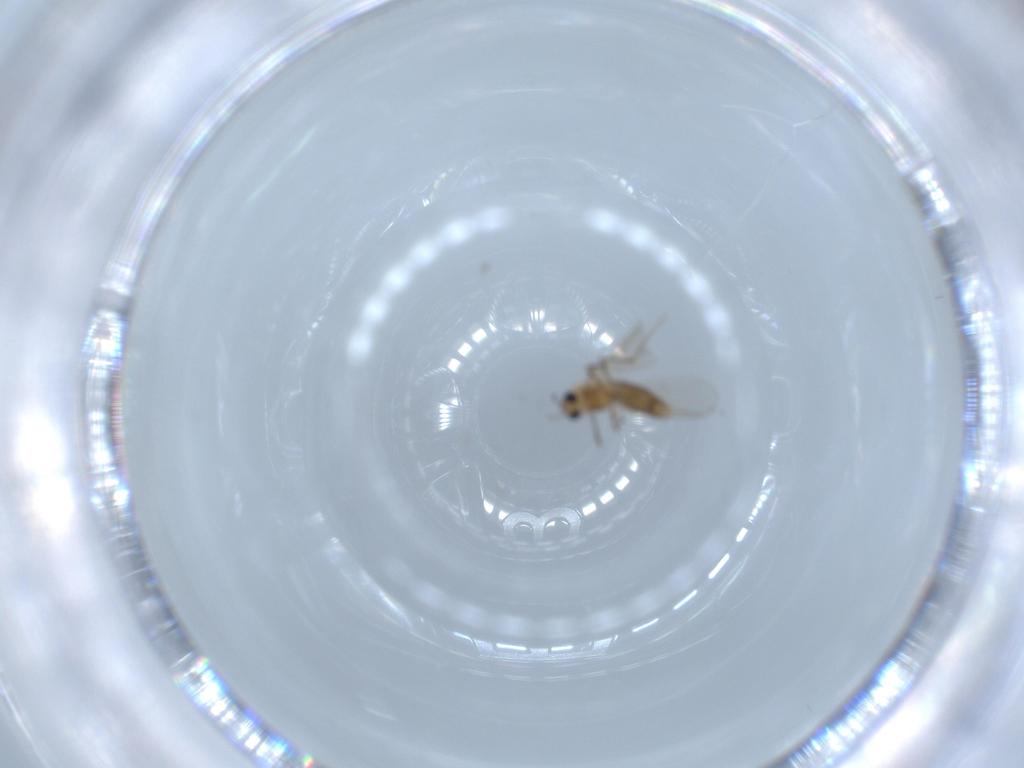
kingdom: Animalia
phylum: Arthropoda
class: Insecta
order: Diptera
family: Chironomidae
